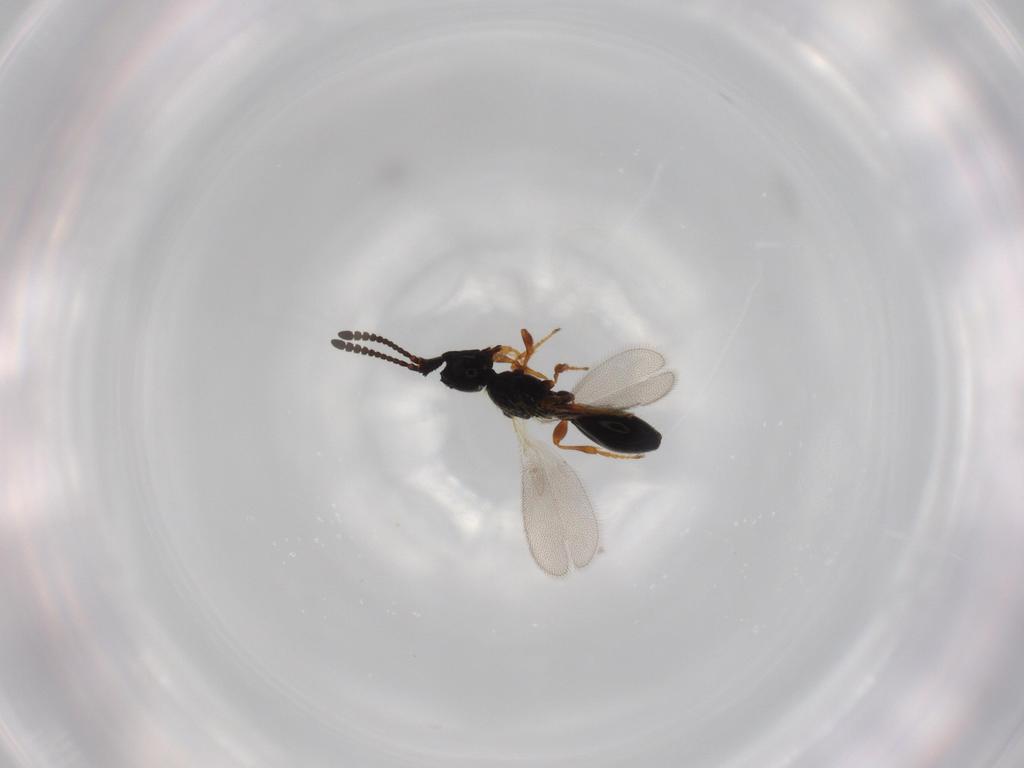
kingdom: Animalia
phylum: Arthropoda
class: Insecta
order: Hymenoptera
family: Diapriidae
